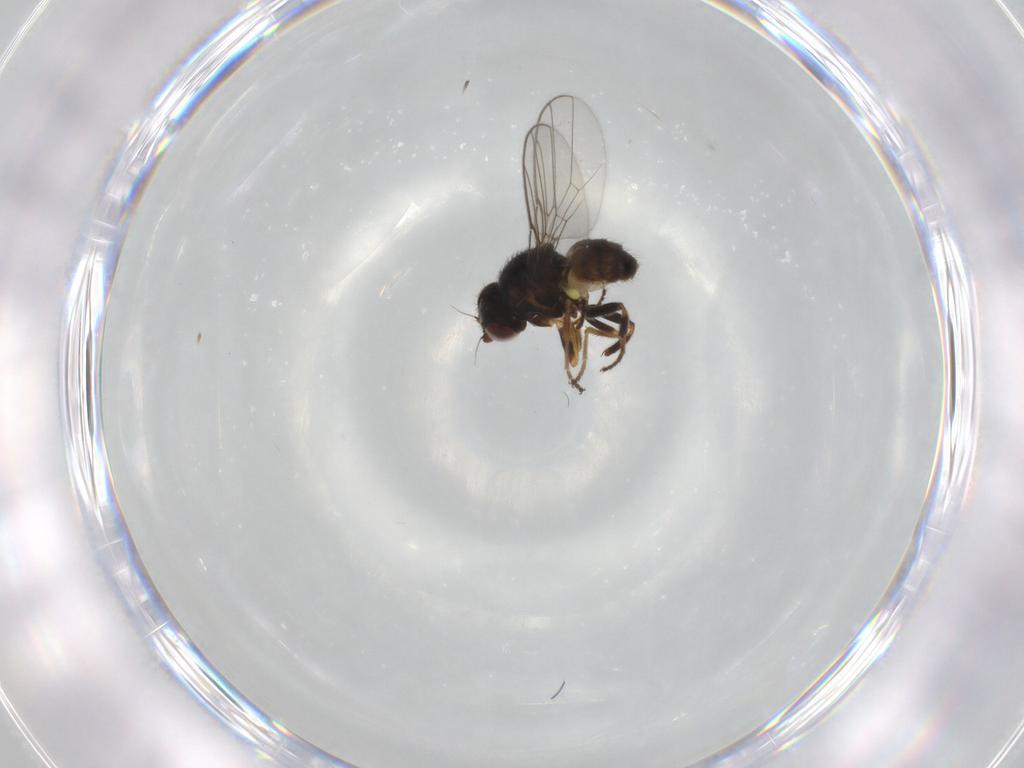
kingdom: Animalia
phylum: Arthropoda
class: Insecta
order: Diptera
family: Chloropidae
